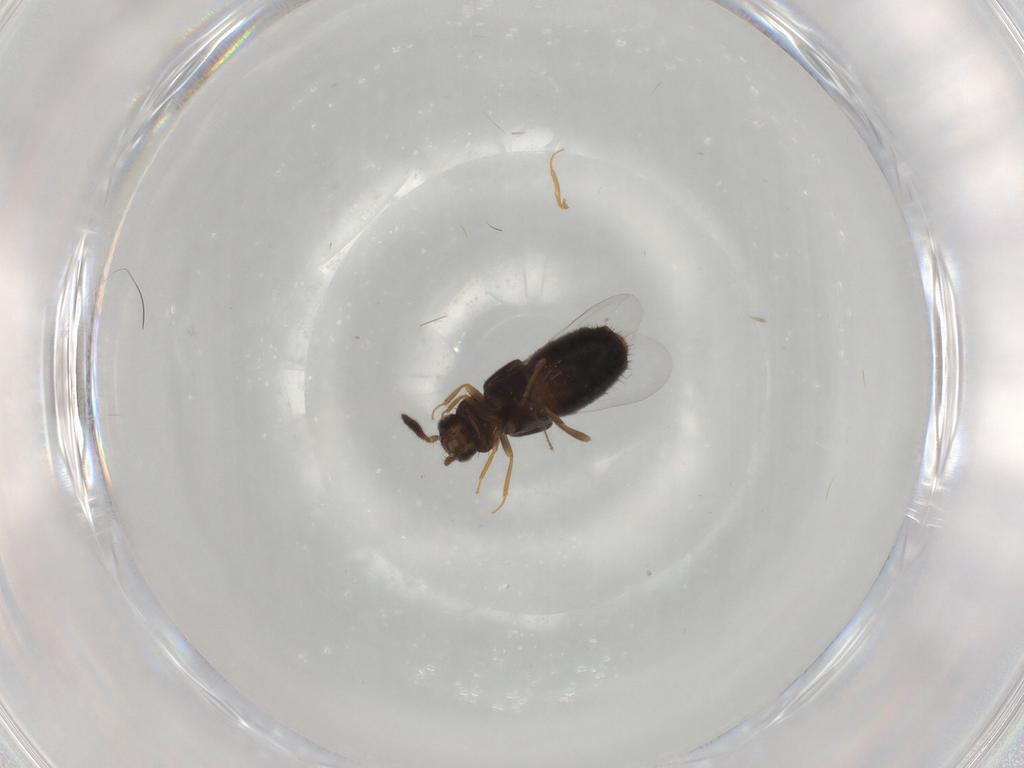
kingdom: Animalia
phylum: Arthropoda
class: Insecta
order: Coleoptera
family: Staphylinidae
